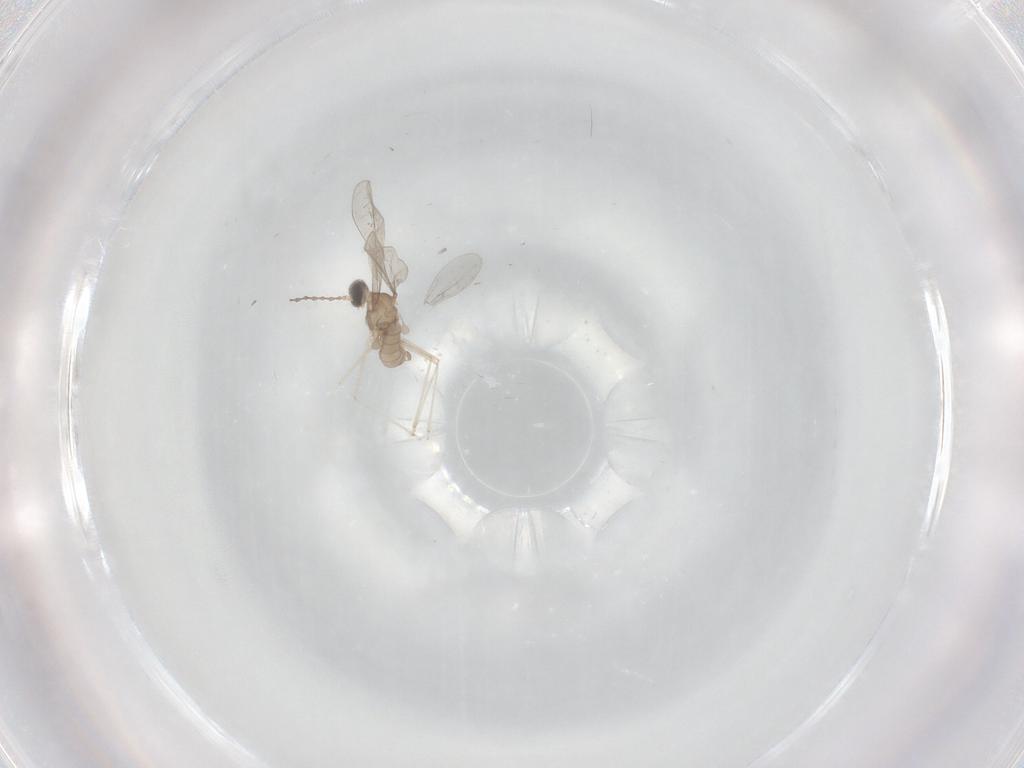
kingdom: Animalia
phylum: Arthropoda
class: Insecta
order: Diptera
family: Cecidomyiidae
